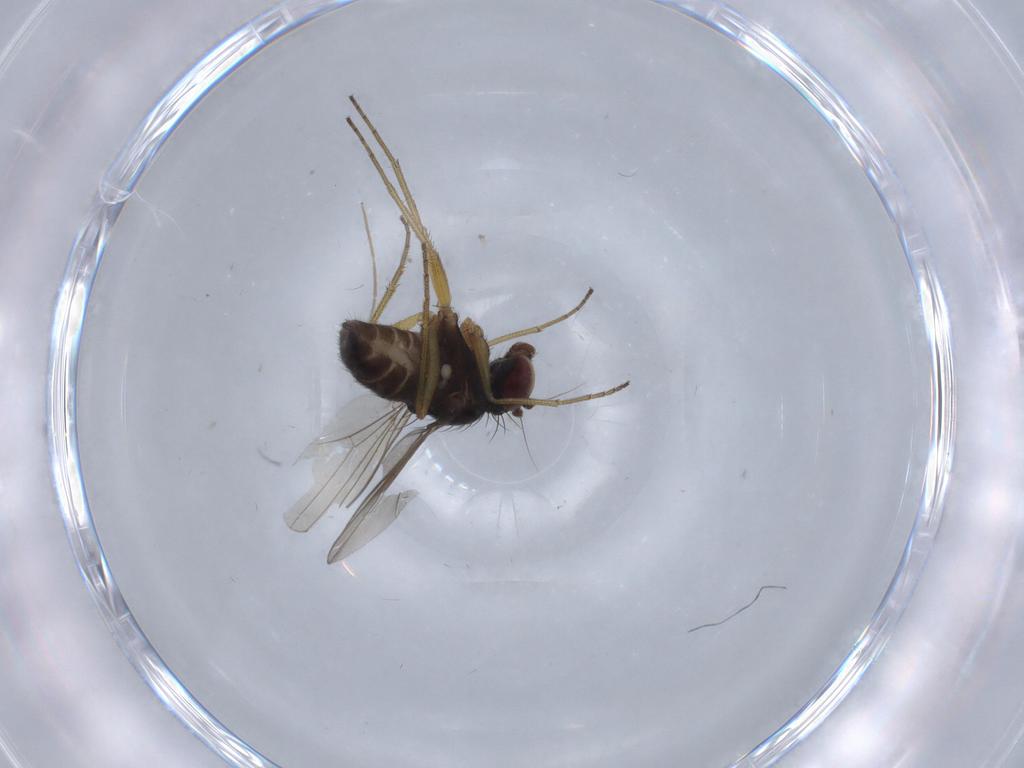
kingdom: Animalia
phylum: Arthropoda
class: Insecta
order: Diptera
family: Dolichopodidae
